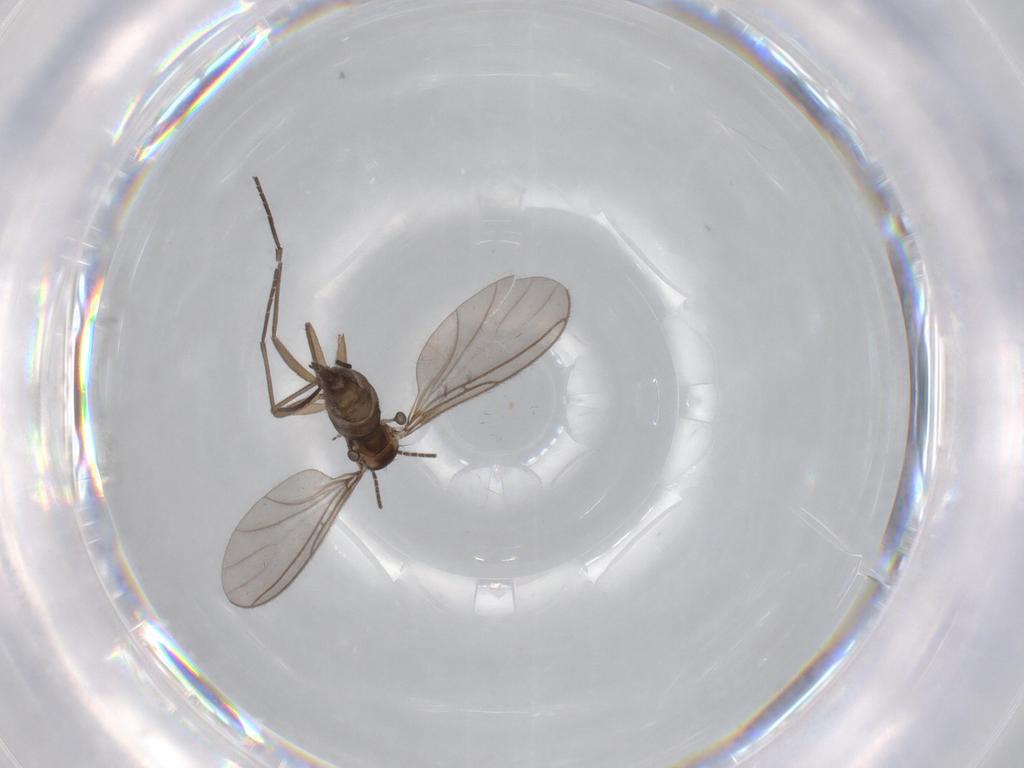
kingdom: Animalia
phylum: Arthropoda
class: Insecta
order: Diptera
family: Sciaridae
